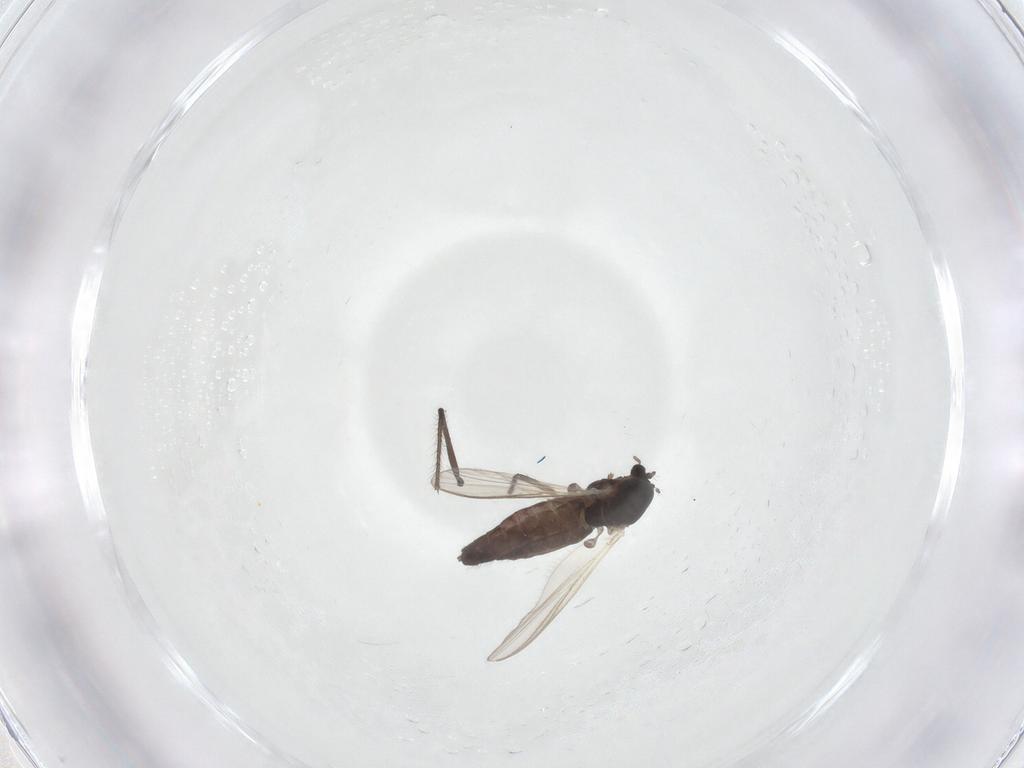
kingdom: Animalia
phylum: Arthropoda
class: Insecta
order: Diptera
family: Chironomidae
